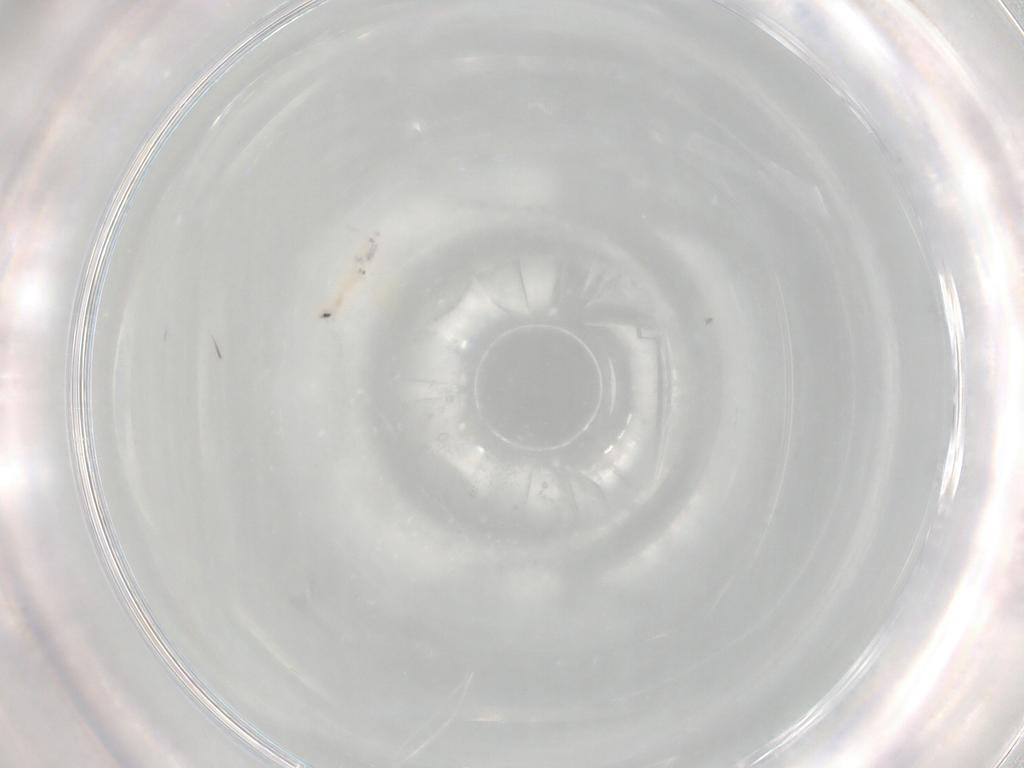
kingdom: Animalia
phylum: Arthropoda
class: Collembola
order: Entomobryomorpha
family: Entomobryidae
